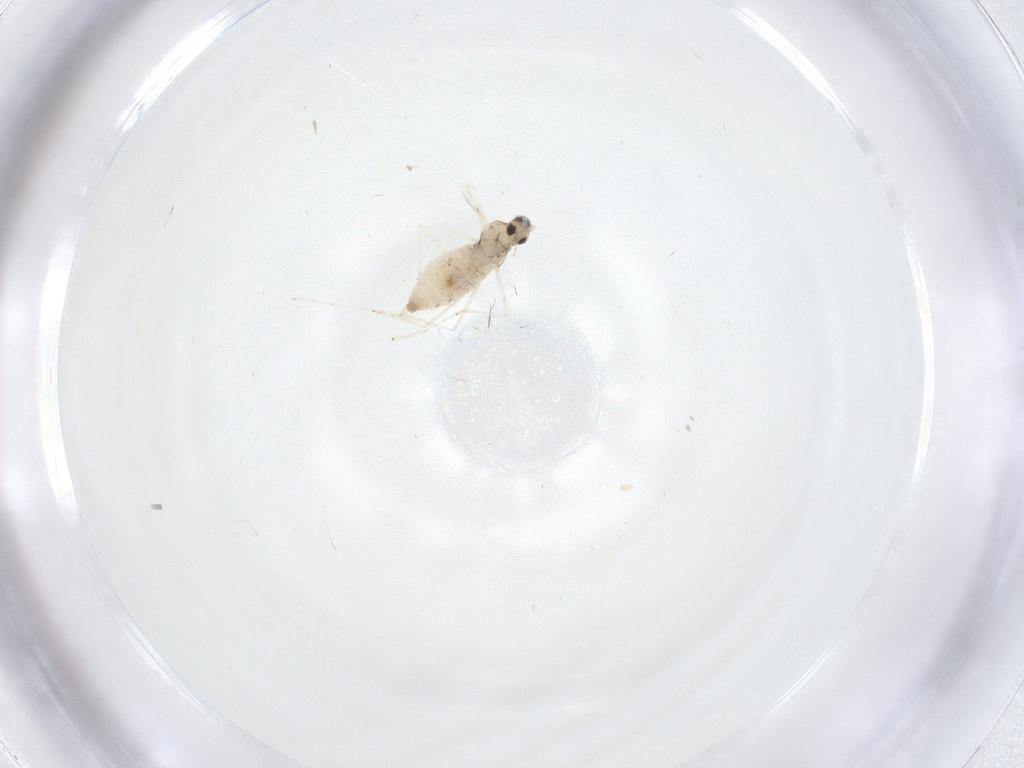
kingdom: Animalia
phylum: Arthropoda
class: Insecta
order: Diptera
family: Cecidomyiidae
